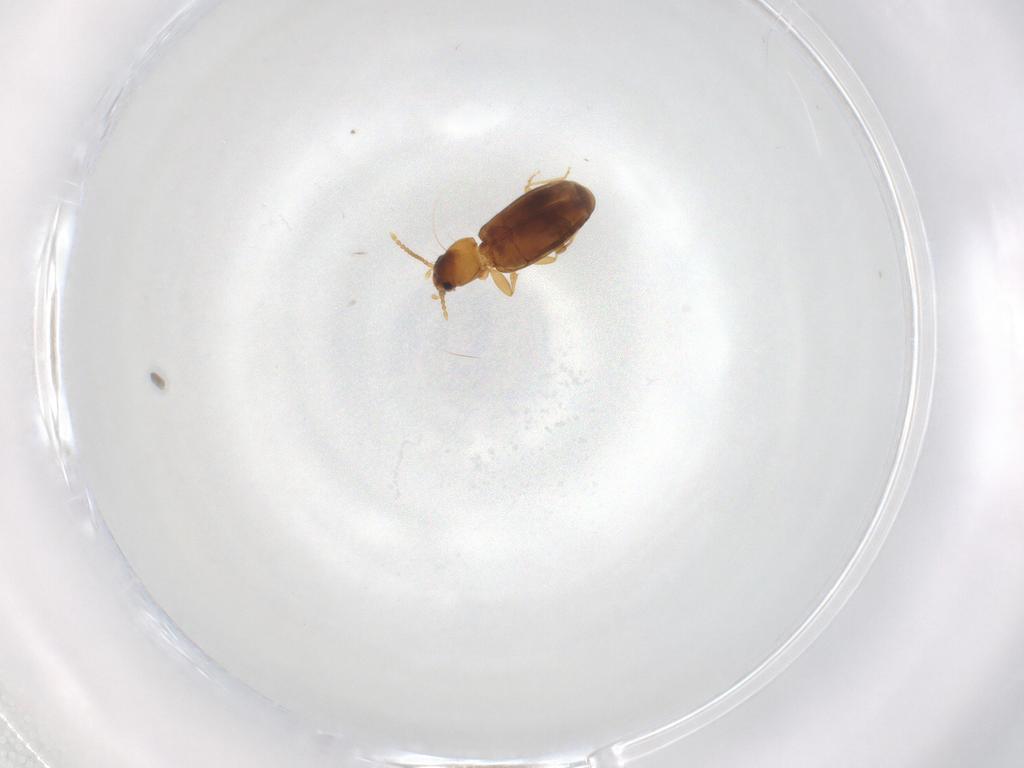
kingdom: Animalia
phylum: Arthropoda
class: Insecta
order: Coleoptera
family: Carabidae
